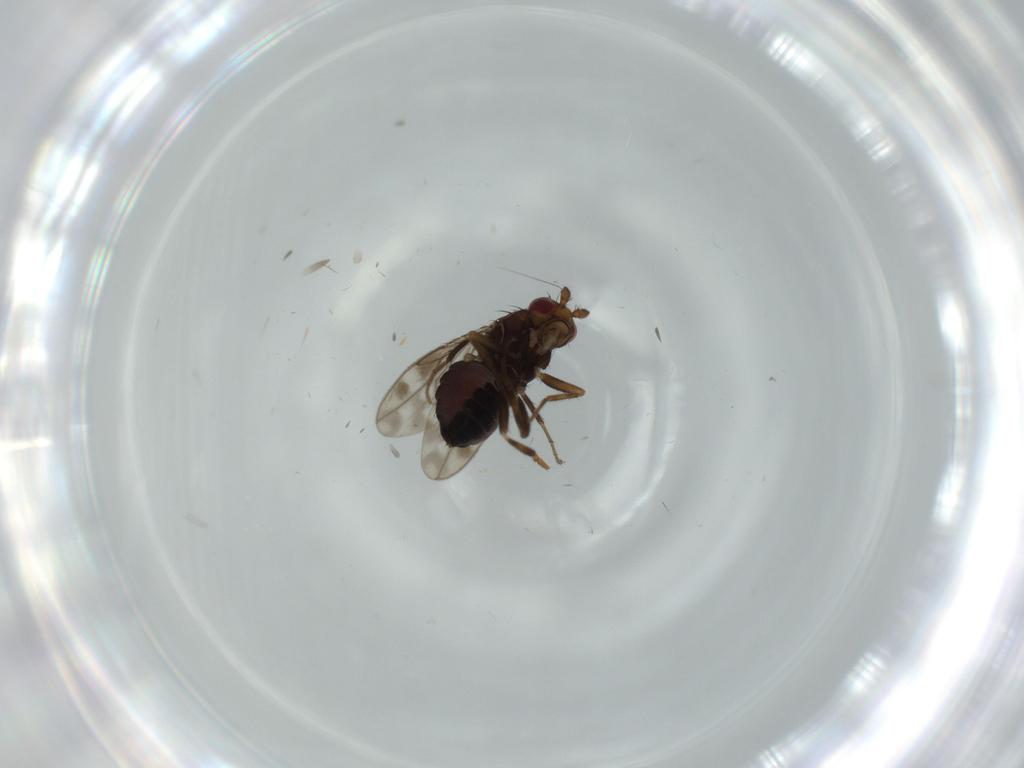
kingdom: Animalia
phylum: Arthropoda
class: Insecta
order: Diptera
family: Sphaeroceridae
